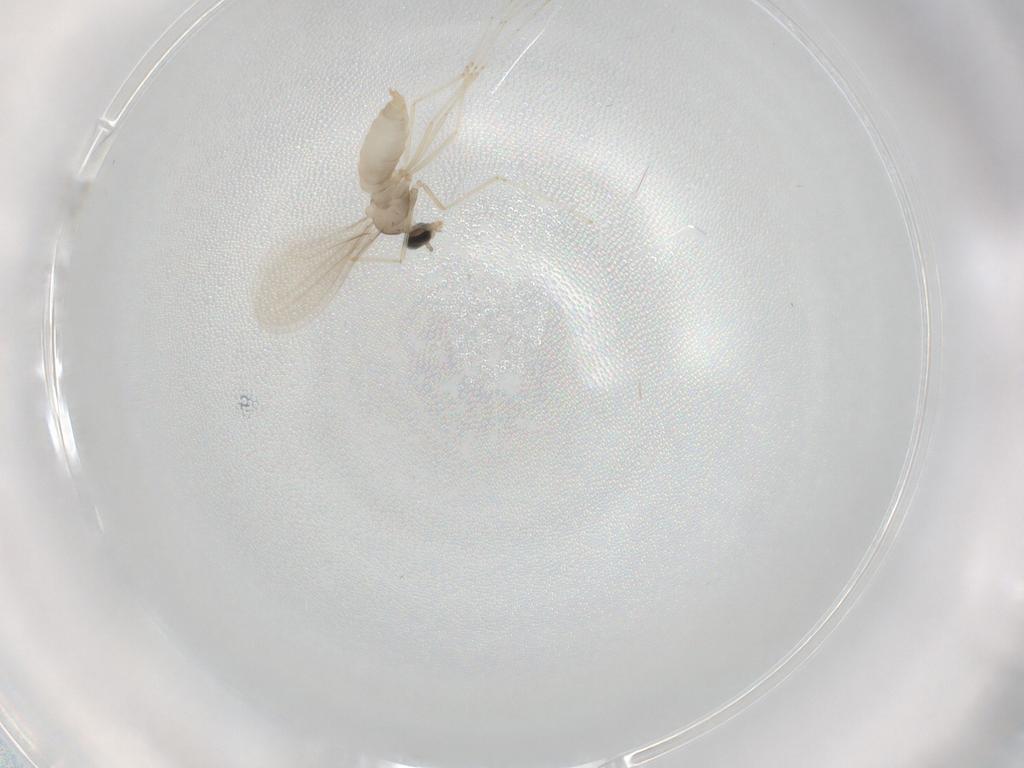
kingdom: Animalia
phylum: Arthropoda
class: Insecta
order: Diptera
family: Cecidomyiidae
